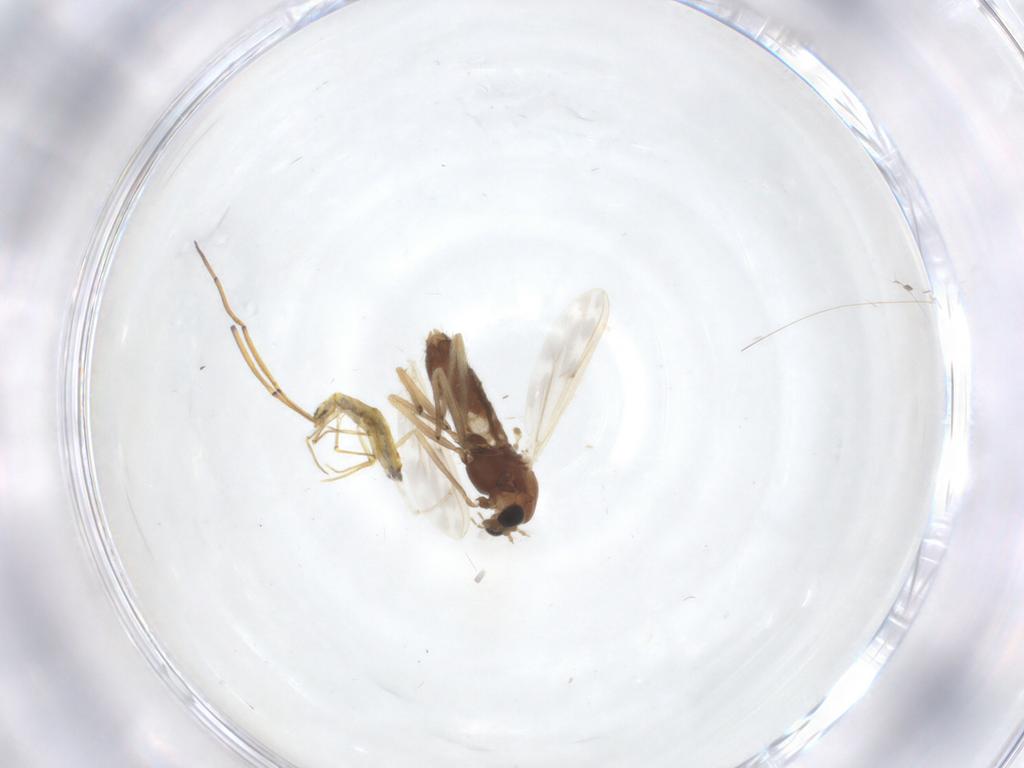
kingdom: Animalia
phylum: Arthropoda
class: Insecta
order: Diptera
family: Chironomidae
